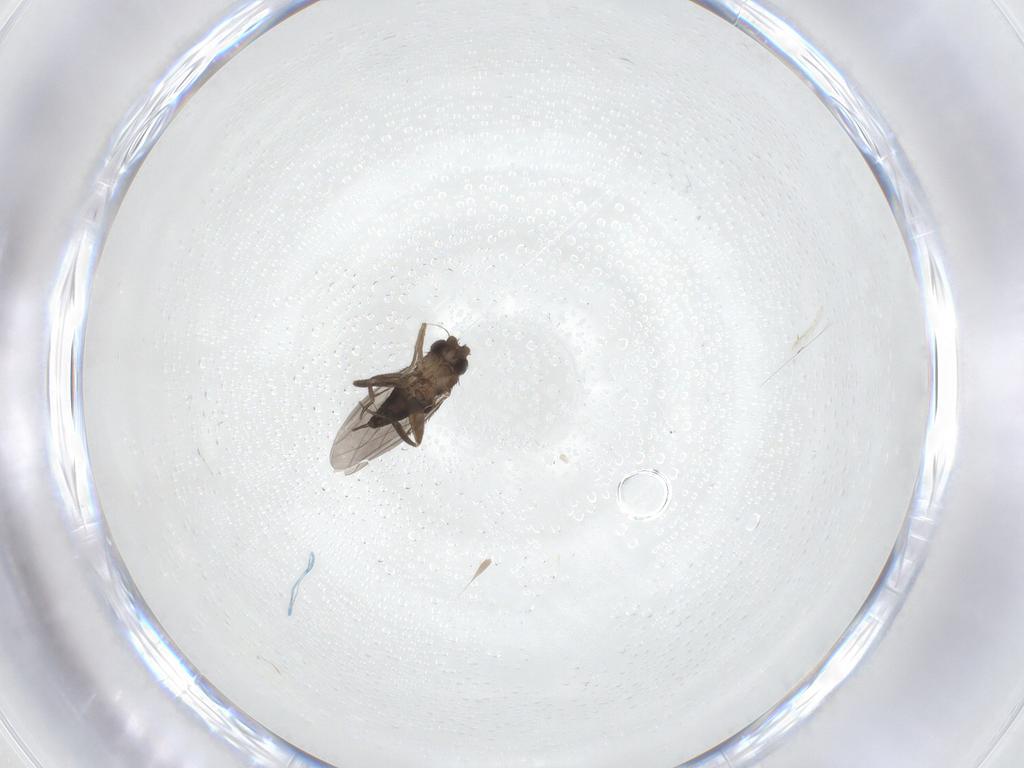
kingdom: Animalia
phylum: Arthropoda
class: Insecta
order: Diptera
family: Phoridae
